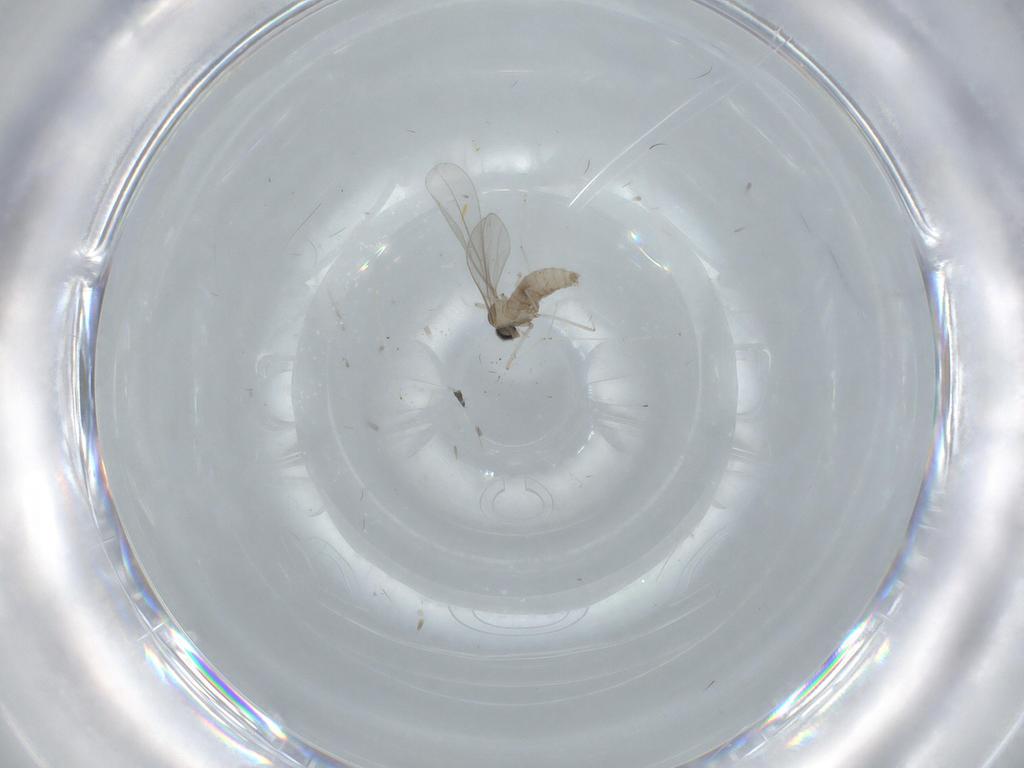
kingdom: Animalia
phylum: Arthropoda
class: Insecta
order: Diptera
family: Cecidomyiidae
